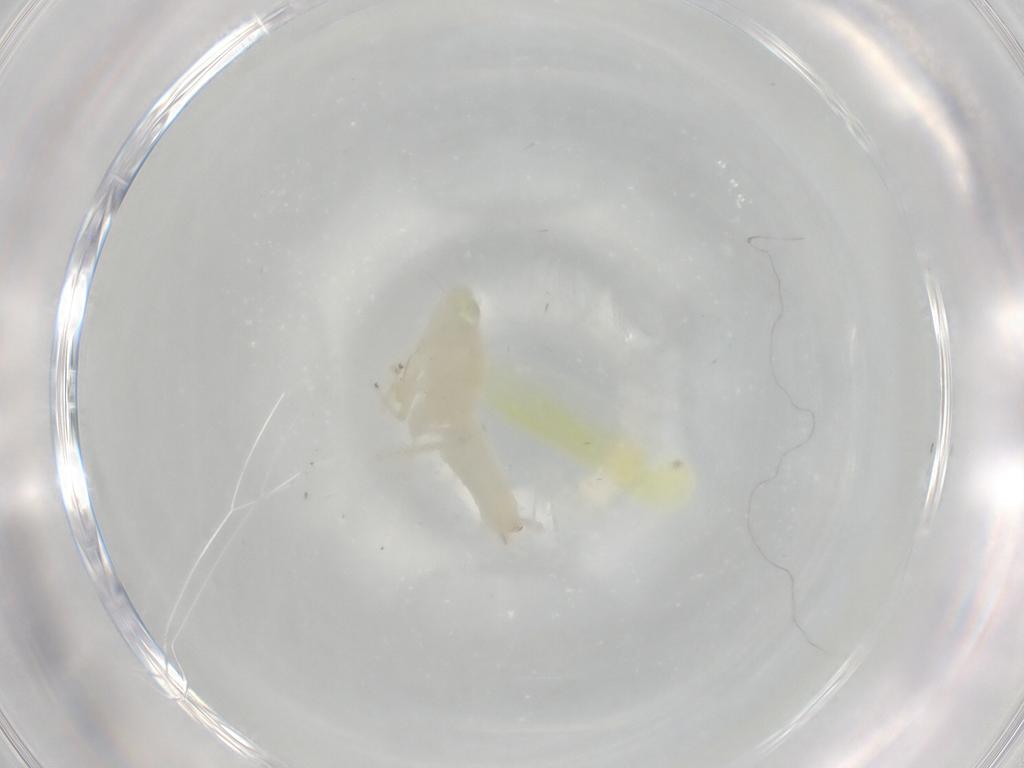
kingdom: Animalia
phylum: Arthropoda
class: Insecta
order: Hemiptera
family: Cicadellidae
